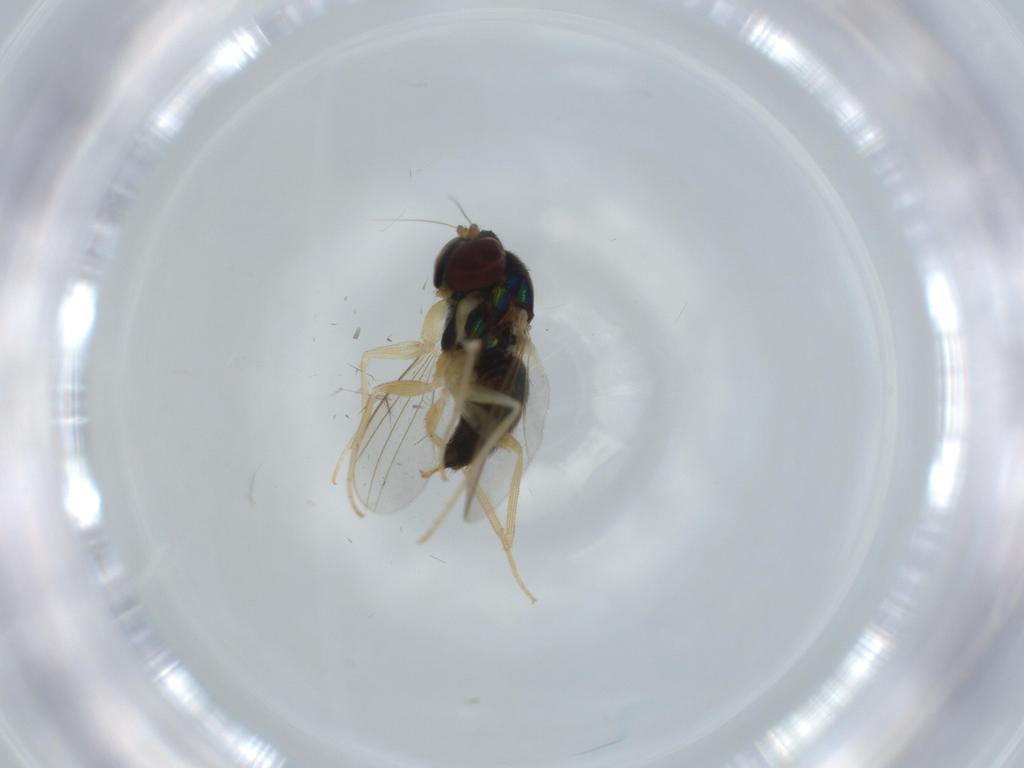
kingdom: Animalia
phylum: Arthropoda
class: Insecta
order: Diptera
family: Dolichopodidae
